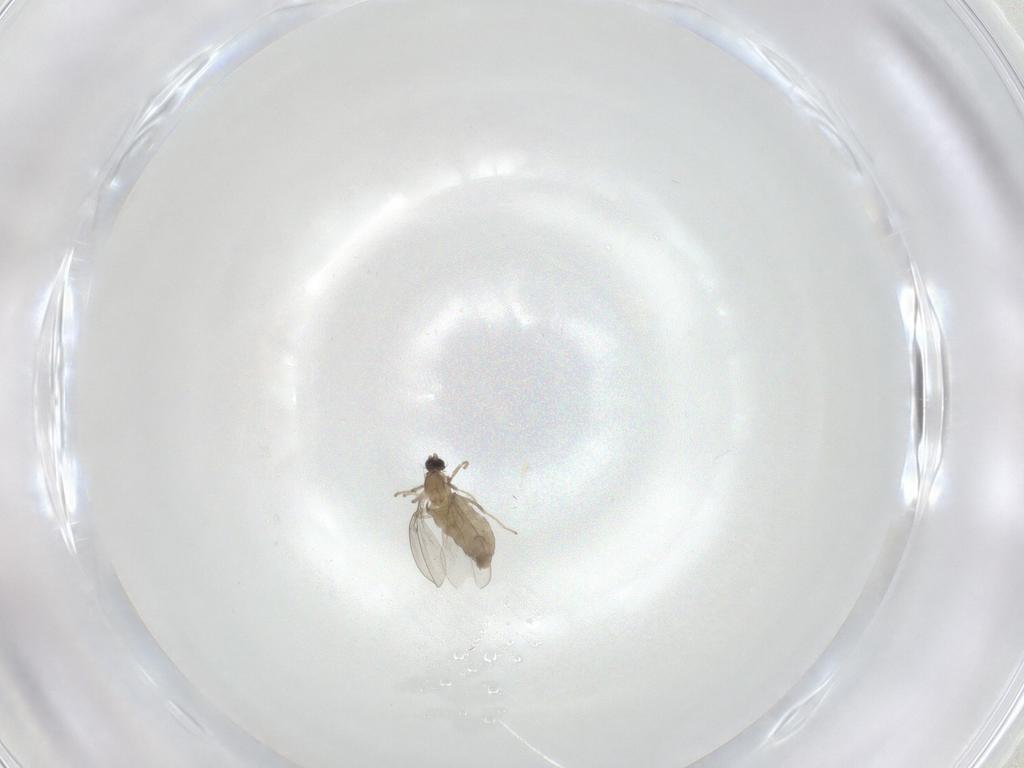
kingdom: Animalia
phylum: Arthropoda
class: Insecta
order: Diptera
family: Cecidomyiidae
